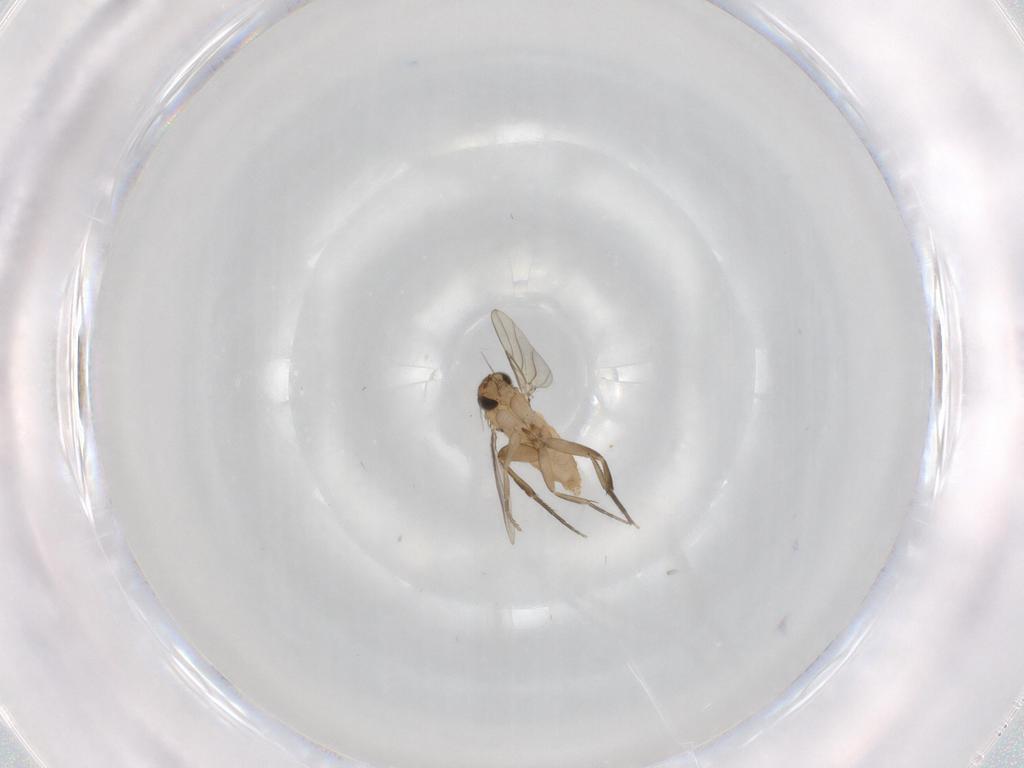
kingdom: Animalia
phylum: Arthropoda
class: Insecta
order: Diptera
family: Phoridae
